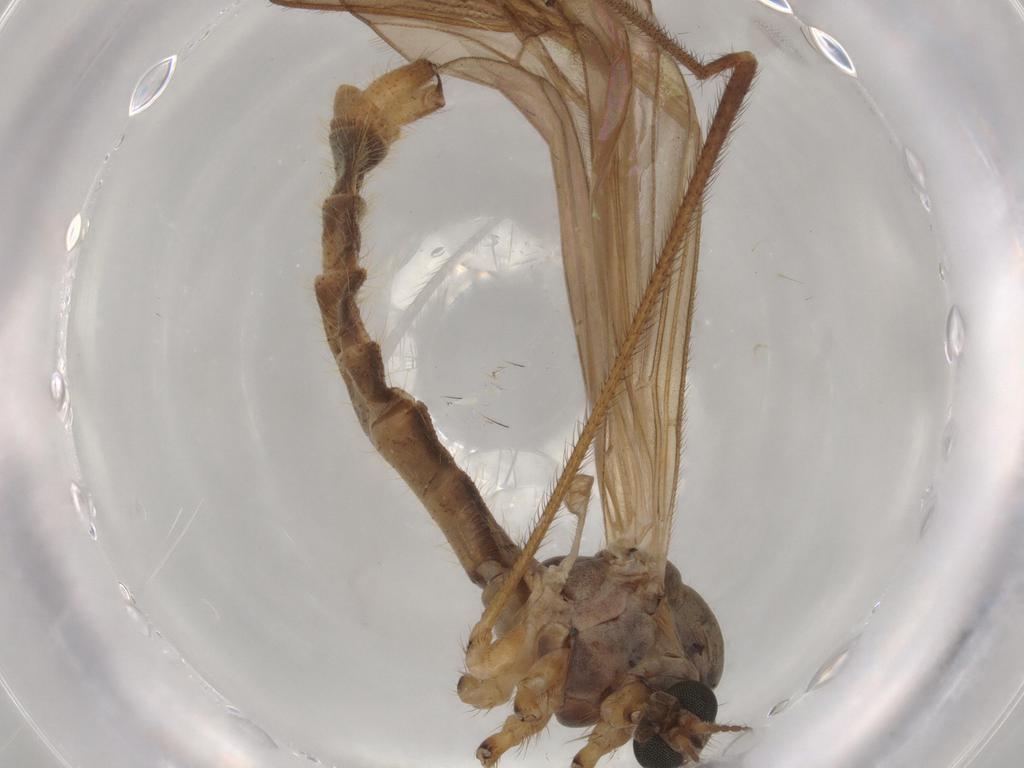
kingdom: Animalia
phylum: Arthropoda
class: Insecta
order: Diptera
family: Limoniidae
